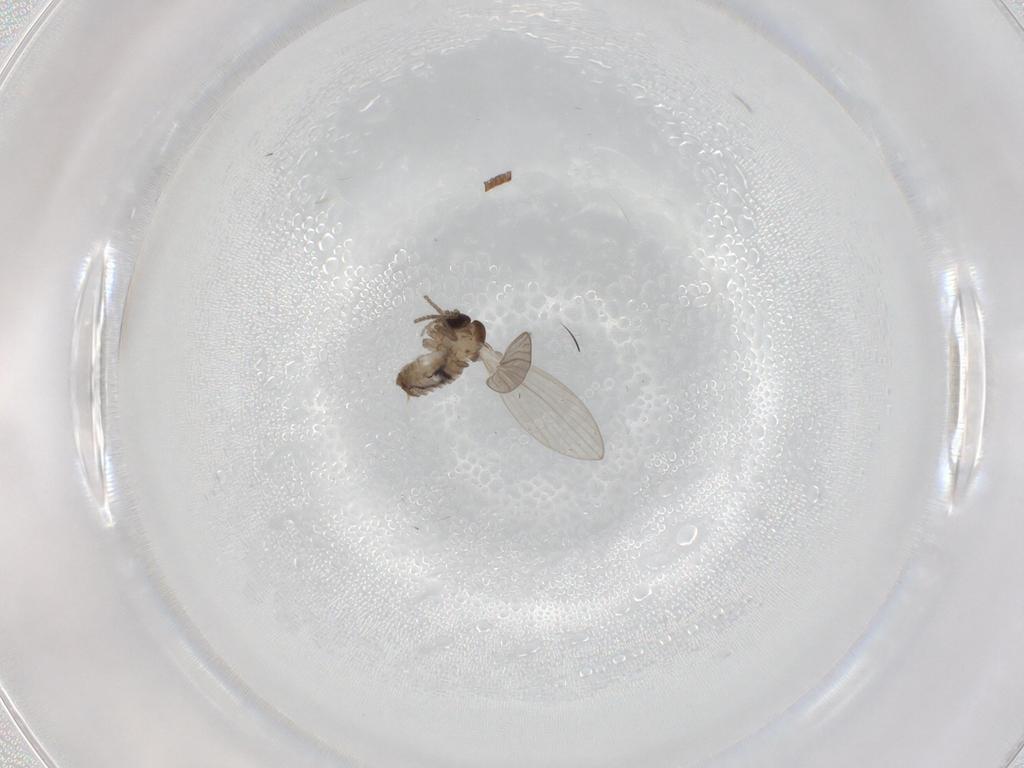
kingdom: Animalia
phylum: Arthropoda
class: Insecta
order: Diptera
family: Psychodidae
